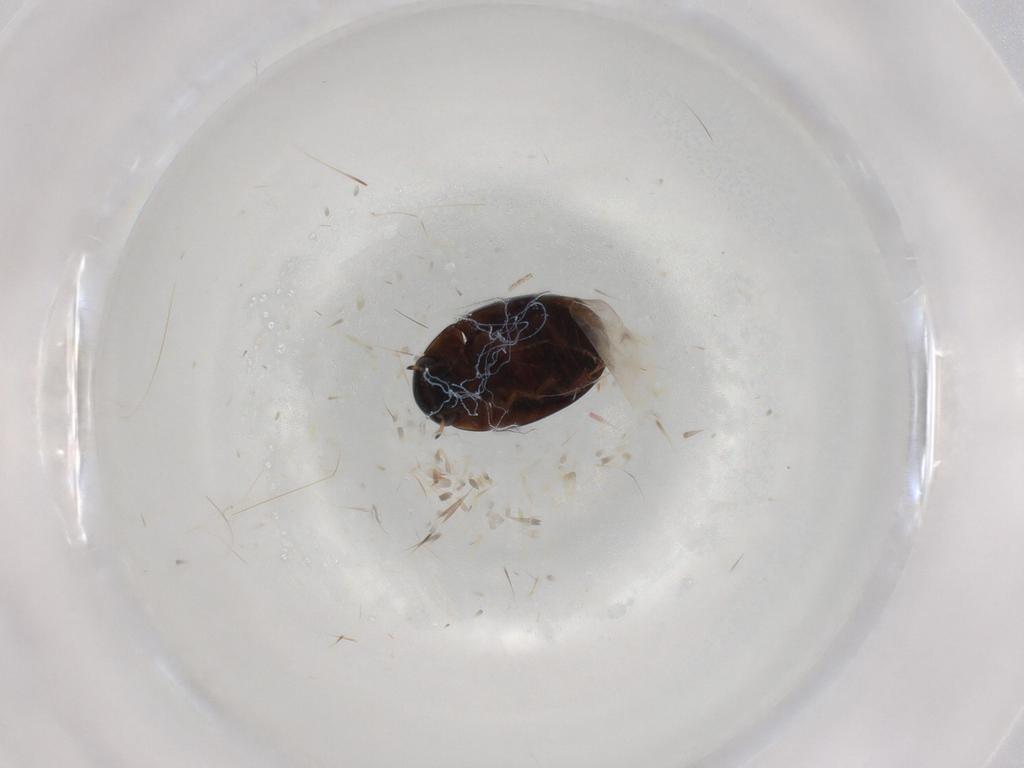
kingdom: Animalia
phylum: Arthropoda
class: Insecta
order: Coleoptera
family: Hydrophilidae
